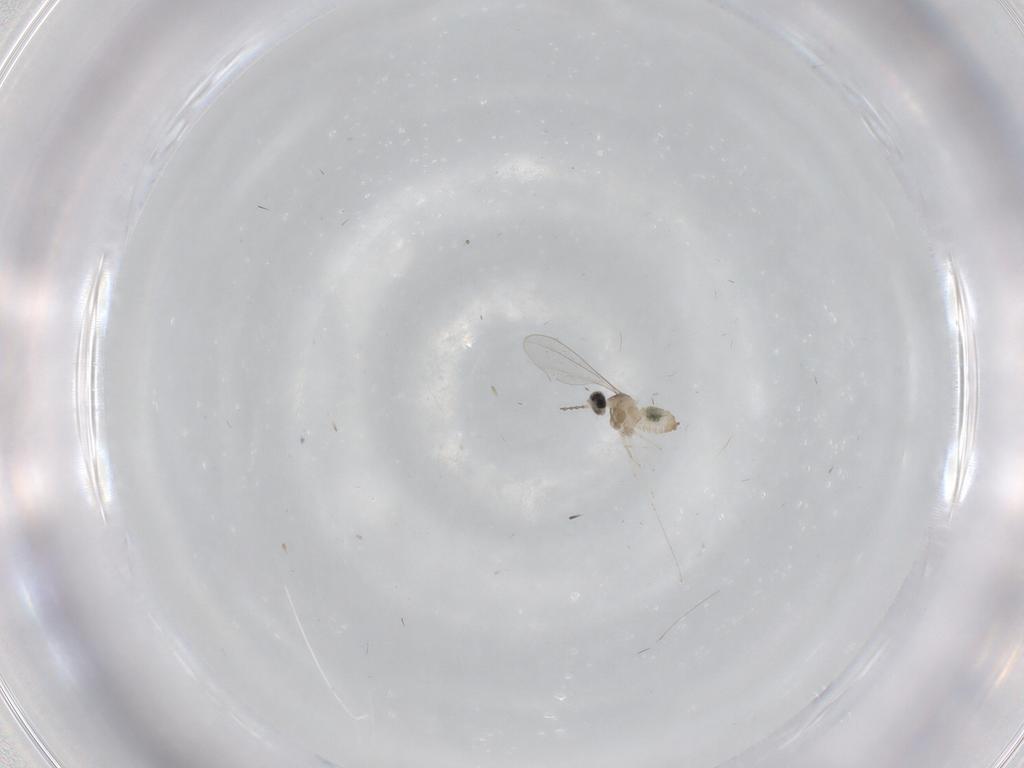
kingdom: Animalia
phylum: Arthropoda
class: Insecta
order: Diptera
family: Cecidomyiidae
